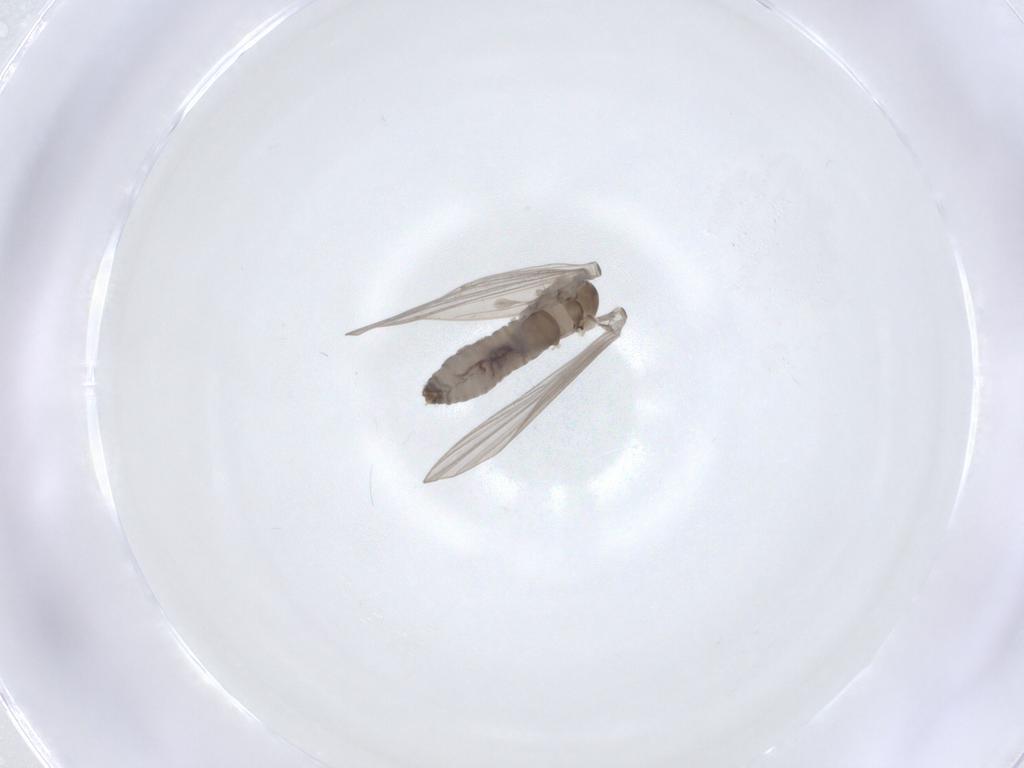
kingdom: Animalia
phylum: Arthropoda
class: Insecta
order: Diptera
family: Psychodidae
